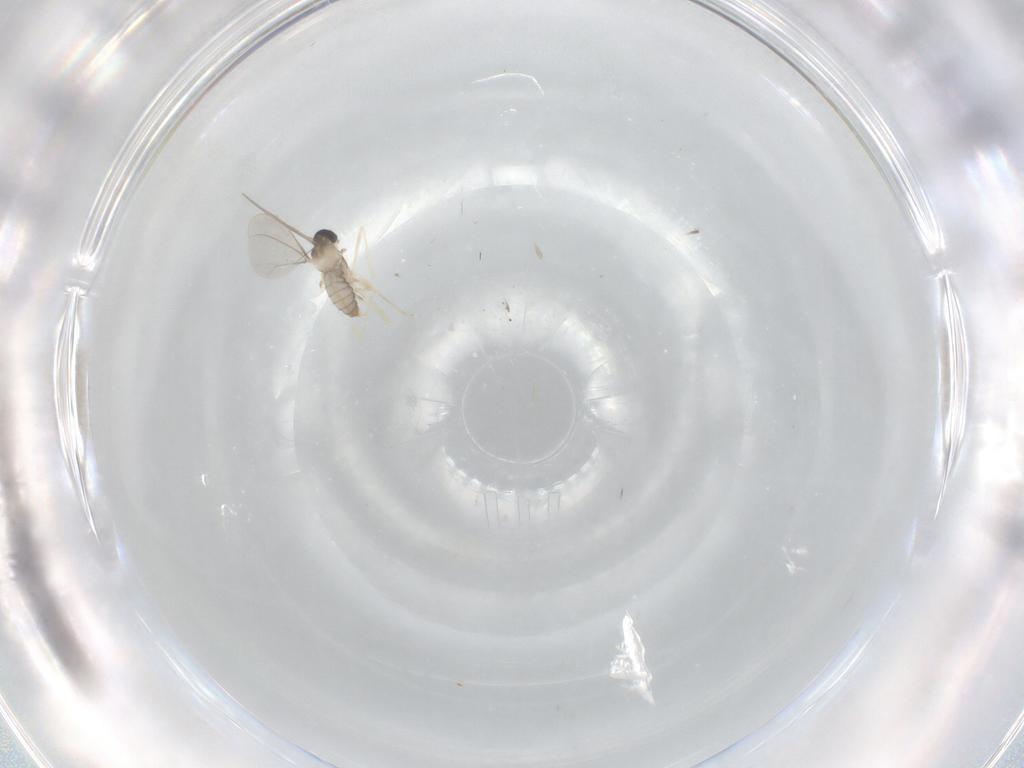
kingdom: Animalia
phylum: Arthropoda
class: Insecta
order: Diptera
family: Cecidomyiidae
